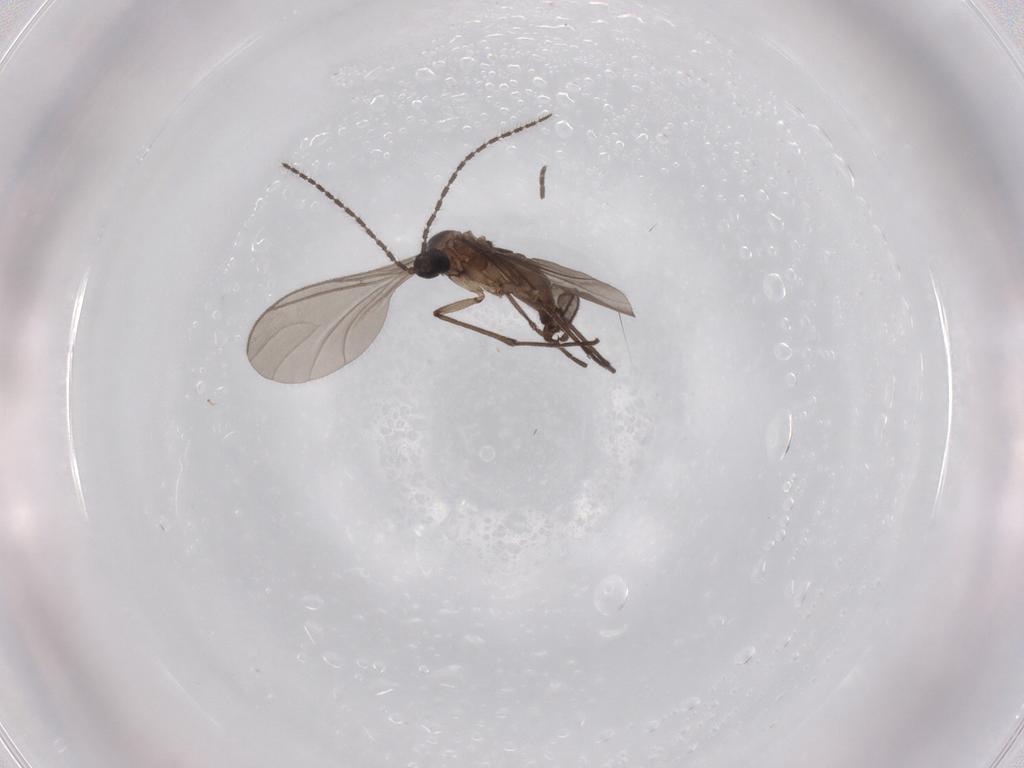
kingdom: Animalia
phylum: Arthropoda
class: Insecta
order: Diptera
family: Sciaridae
